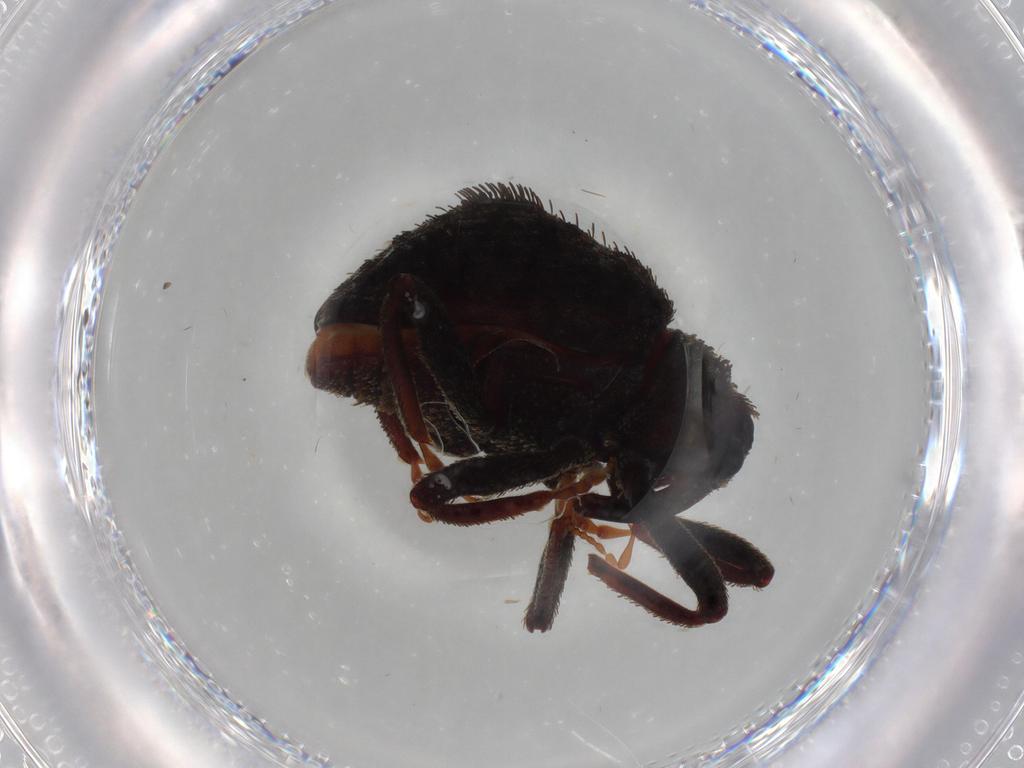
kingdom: Animalia
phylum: Arthropoda
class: Insecta
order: Coleoptera
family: Curculionidae
